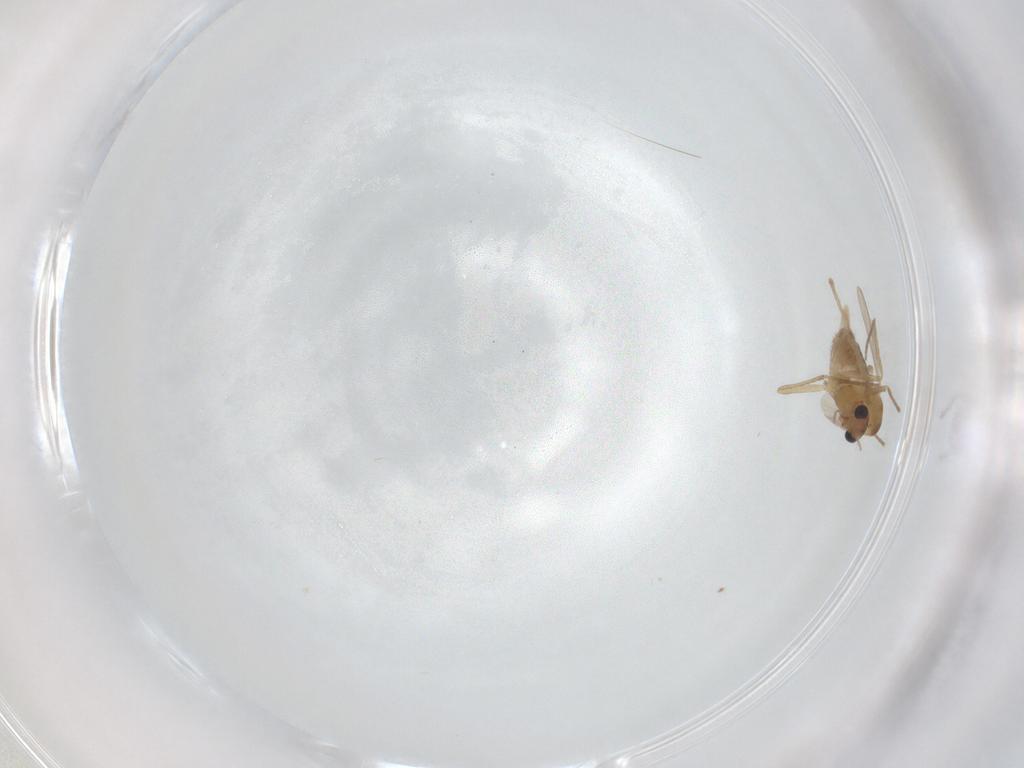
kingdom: Animalia
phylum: Arthropoda
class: Insecta
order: Diptera
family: Chironomidae
